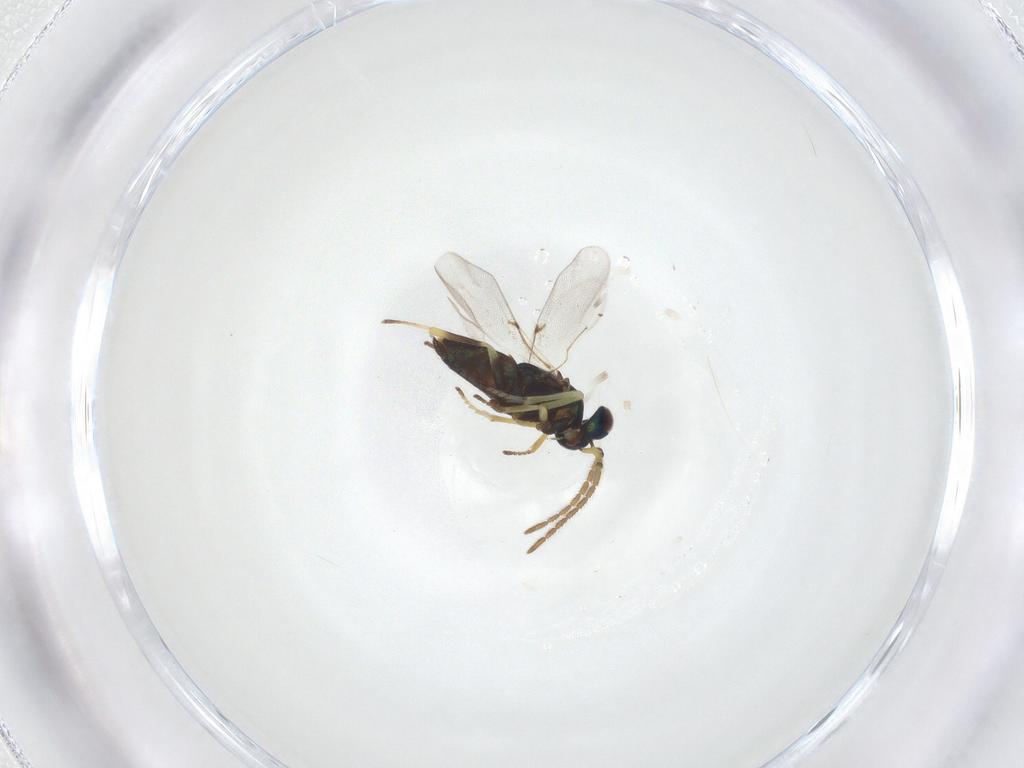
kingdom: Animalia
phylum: Arthropoda
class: Insecta
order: Hymenoptera
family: Encyrtidae
